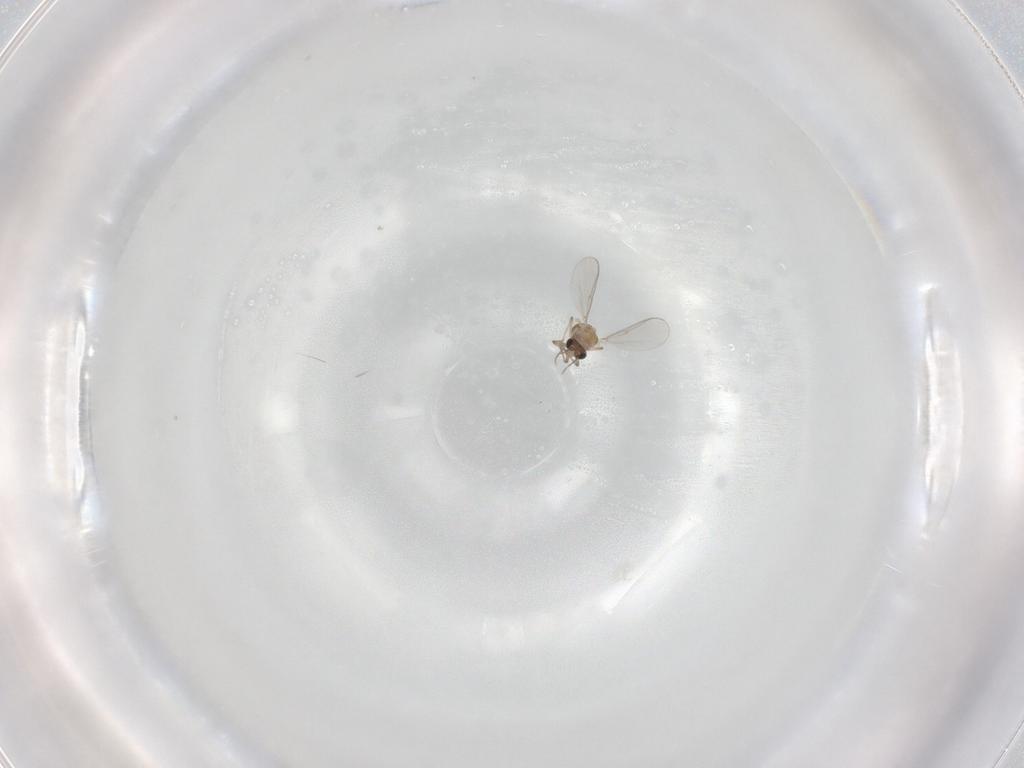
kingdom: Animalia
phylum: Arthropoda
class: Insecta
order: Diptera
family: Chironomidae
